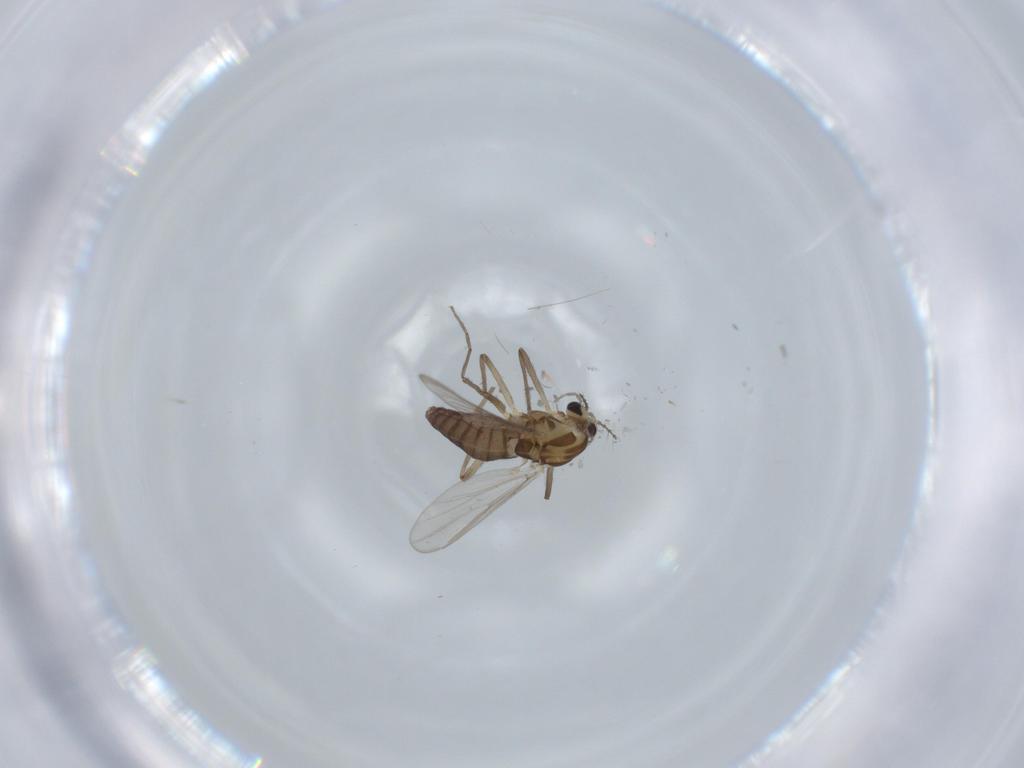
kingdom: Animalia
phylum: Arthropoda
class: Insecta
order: Diptera
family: Chironomidae
